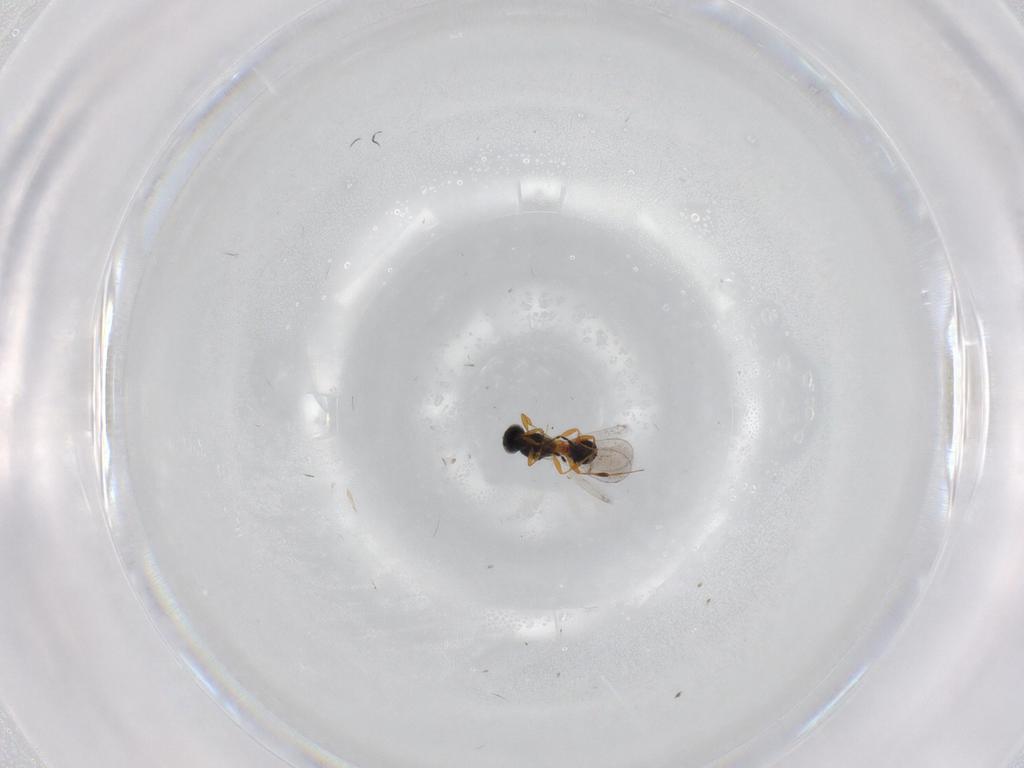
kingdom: Animalia
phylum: Arthropoda
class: Insecta
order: Hymenoptera
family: Platygastridae
